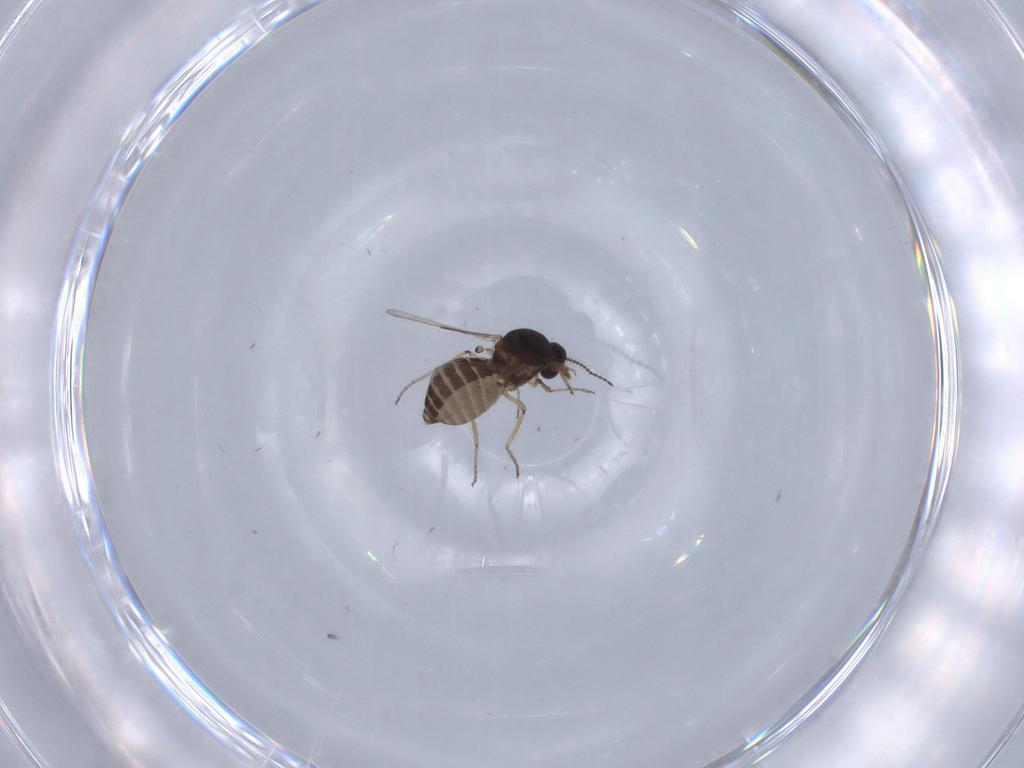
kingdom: Animalia
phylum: Arthropoda
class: Insecta
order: Diptera
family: Ceratopogonidae
